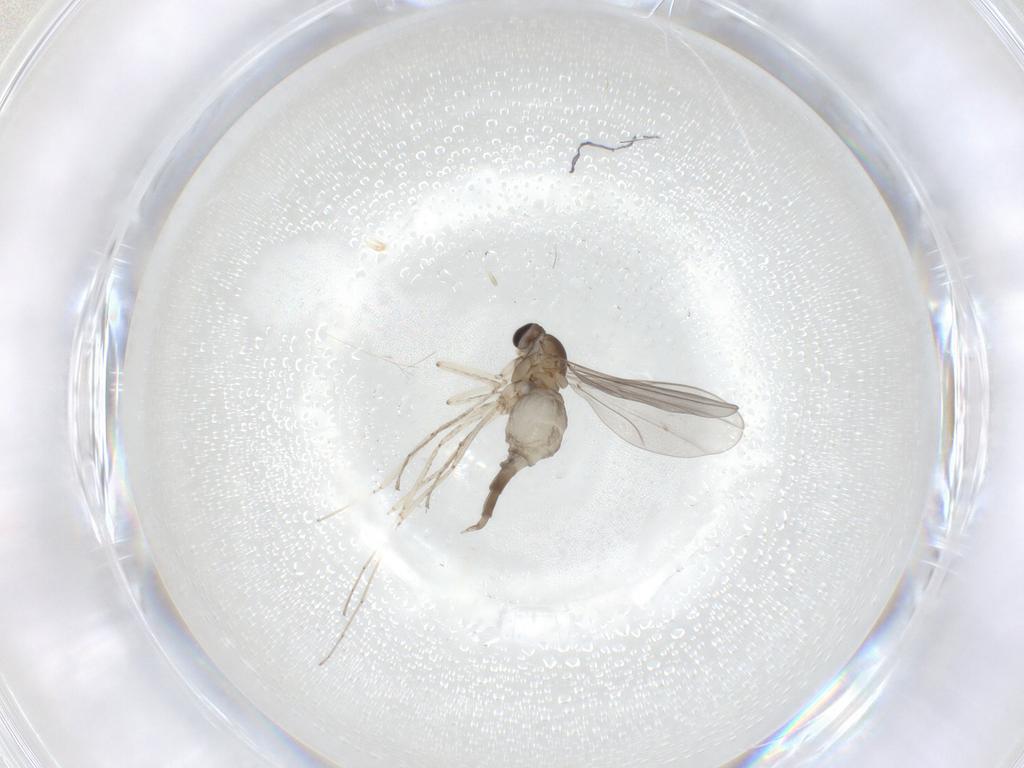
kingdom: Animalia
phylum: Arthropoda
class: Insecta
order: Diptera
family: Cecidomyiidae
